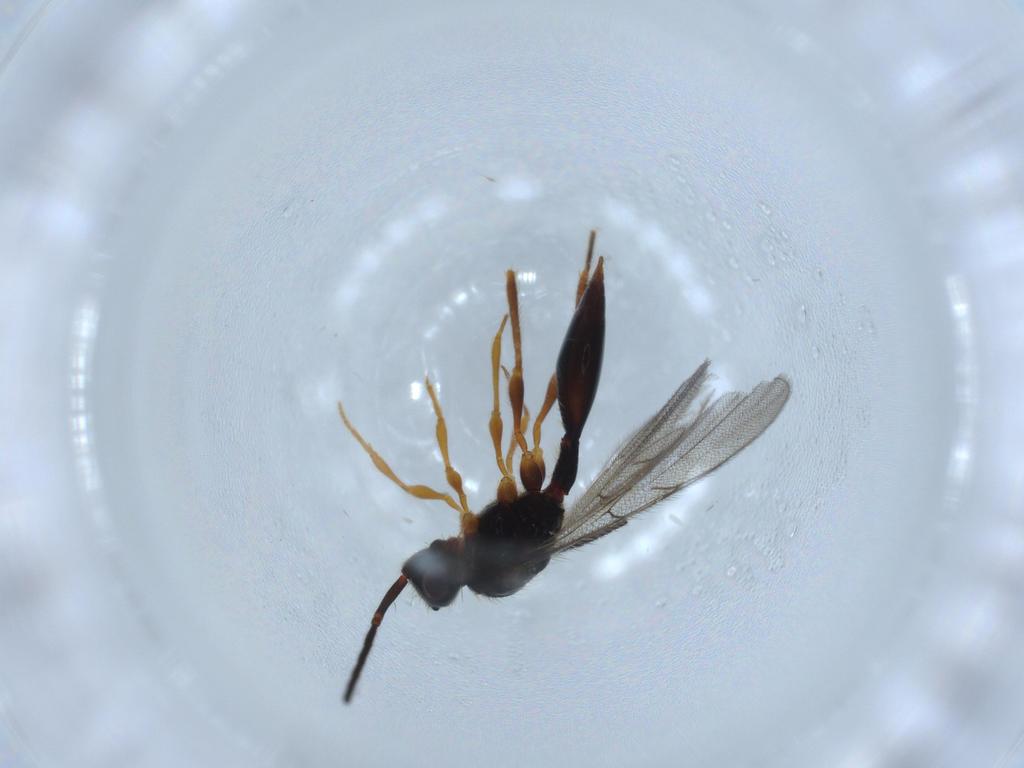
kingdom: Animalia
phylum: Arthropoda
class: Insecta
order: Hymenoptera
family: Formicidae
